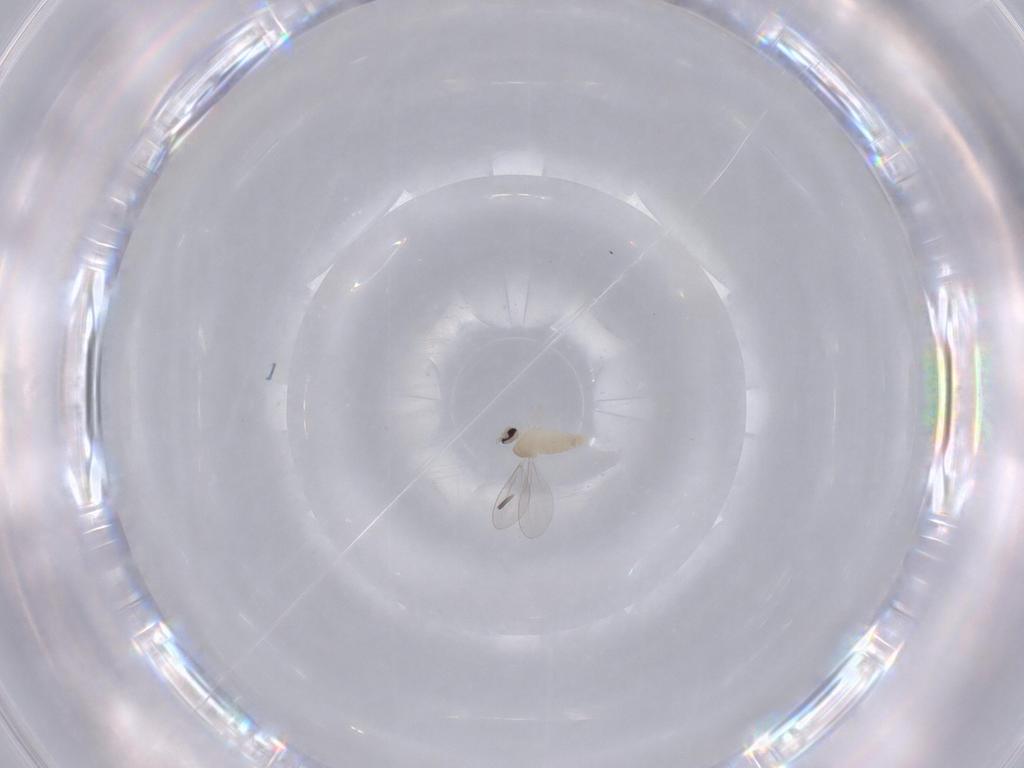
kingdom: Animalia
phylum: Arthropoda
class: Insecta
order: Diptera
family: Cecidomyiidae
